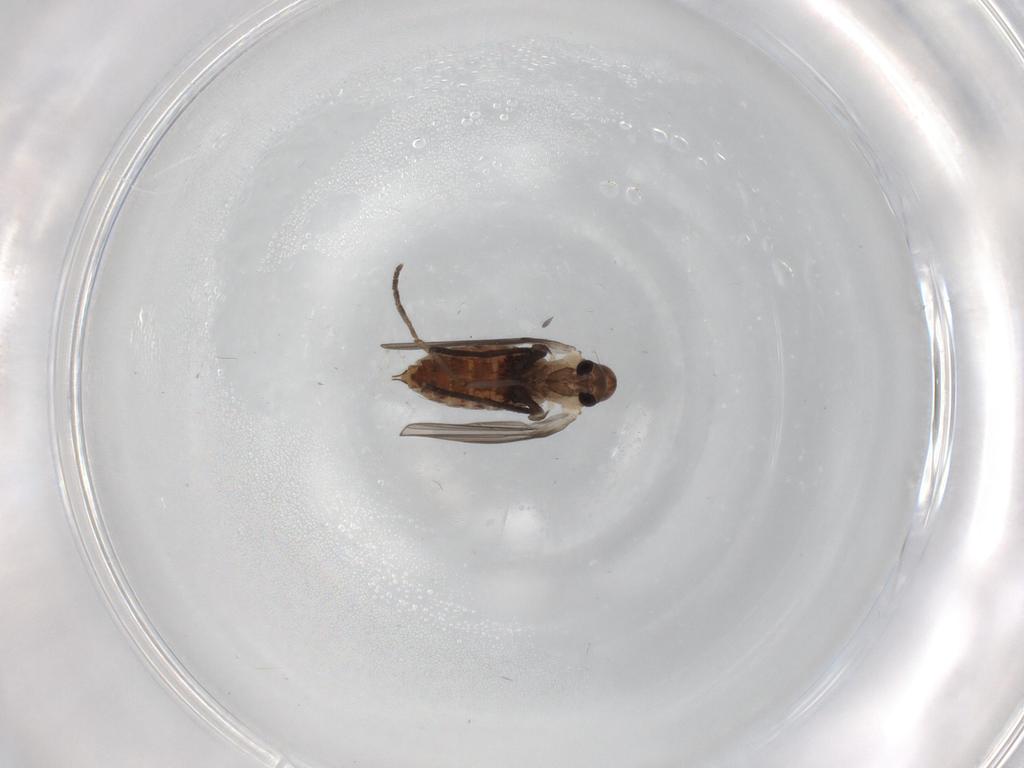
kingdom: Animalia
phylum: Arthropoda
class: Insecta
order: Diptera
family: Psychodidae
